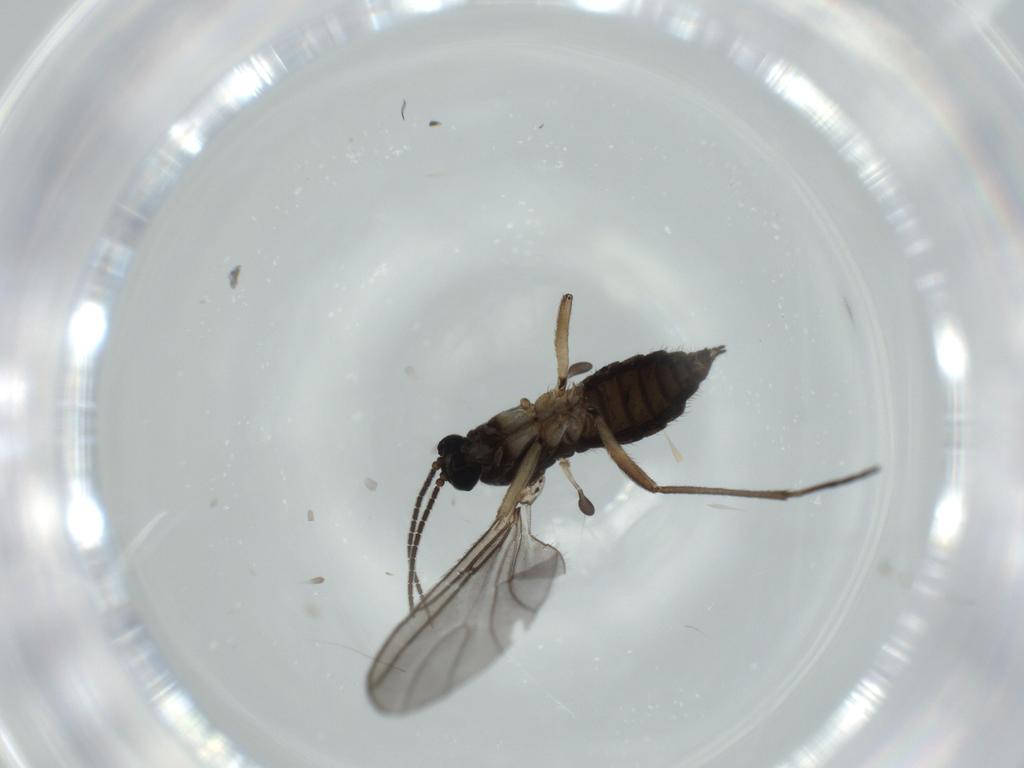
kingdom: Animalia
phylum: Arthropoda
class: Insecta
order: Diptera
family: Sciaridae
